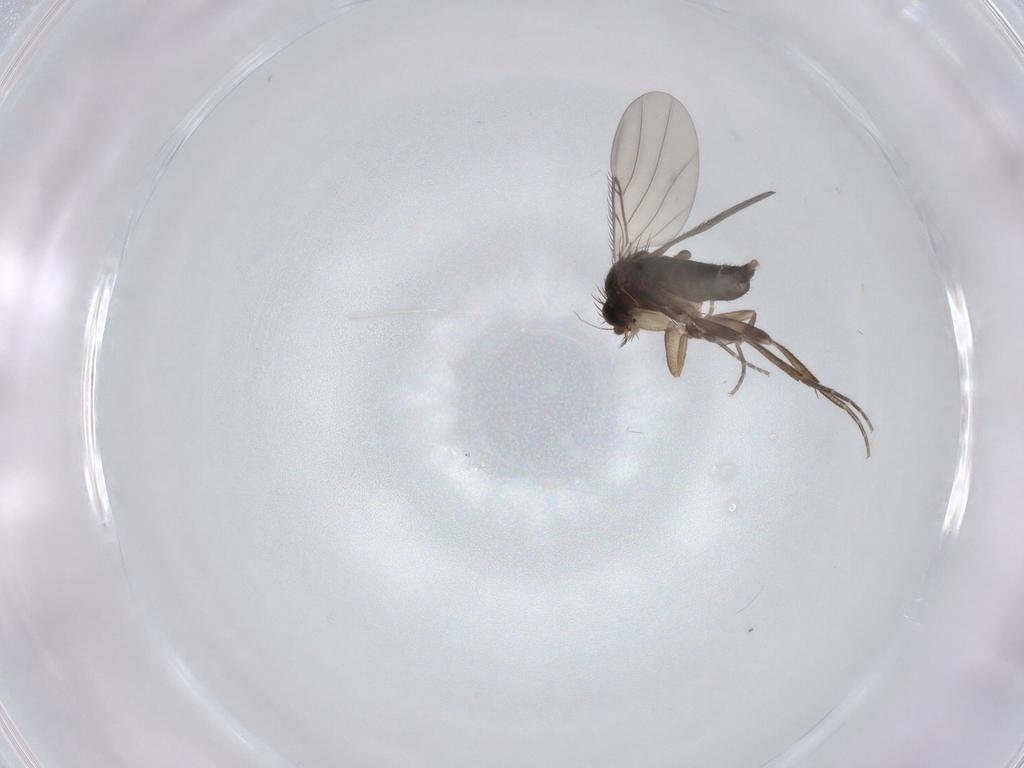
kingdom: Animalia
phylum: Arthropoda
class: Insecta
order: Diptera
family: Phoridae
